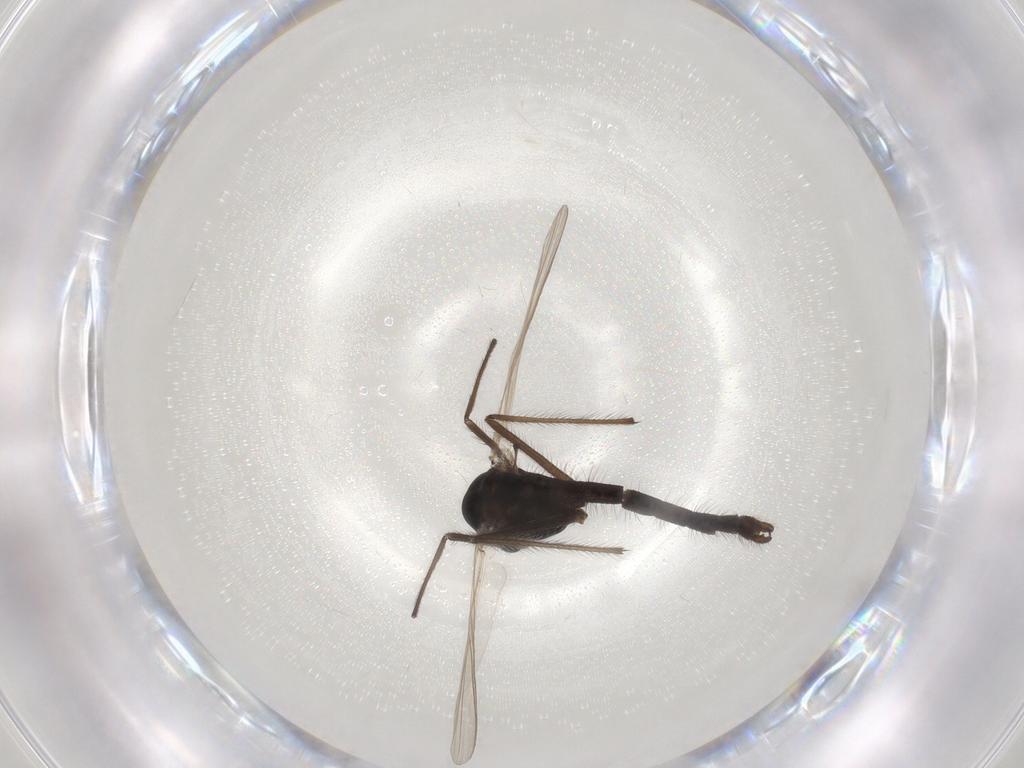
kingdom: Animalia
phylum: Arthropoda
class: Insecta
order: Diptera
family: Chironomidae
